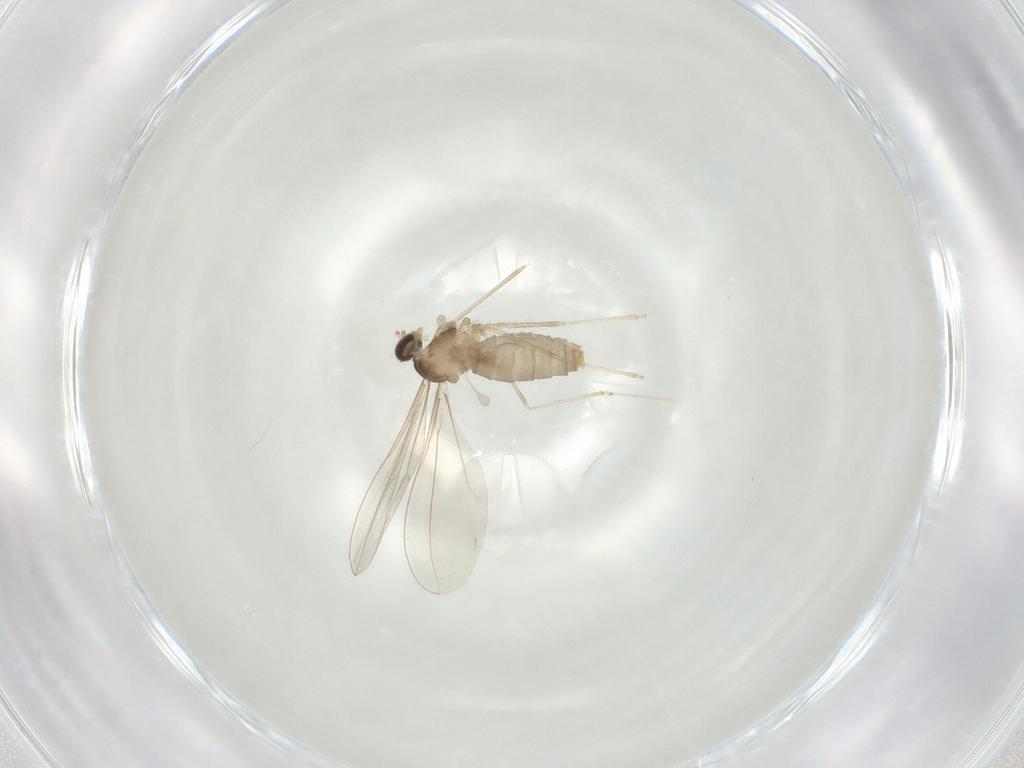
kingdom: Animalia
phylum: Arthropoda
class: Insecta
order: Diptera
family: Cecidomyiidae
